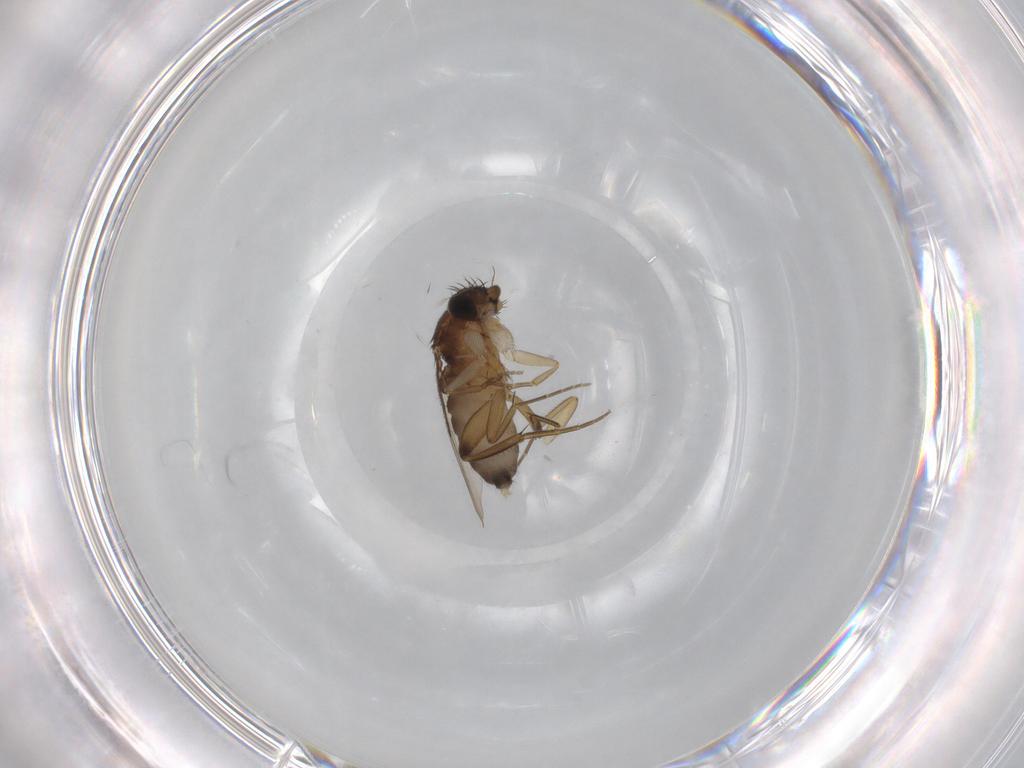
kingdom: Animalia
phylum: Arthropoda
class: Insecta
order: Diptera
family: Phoridae
